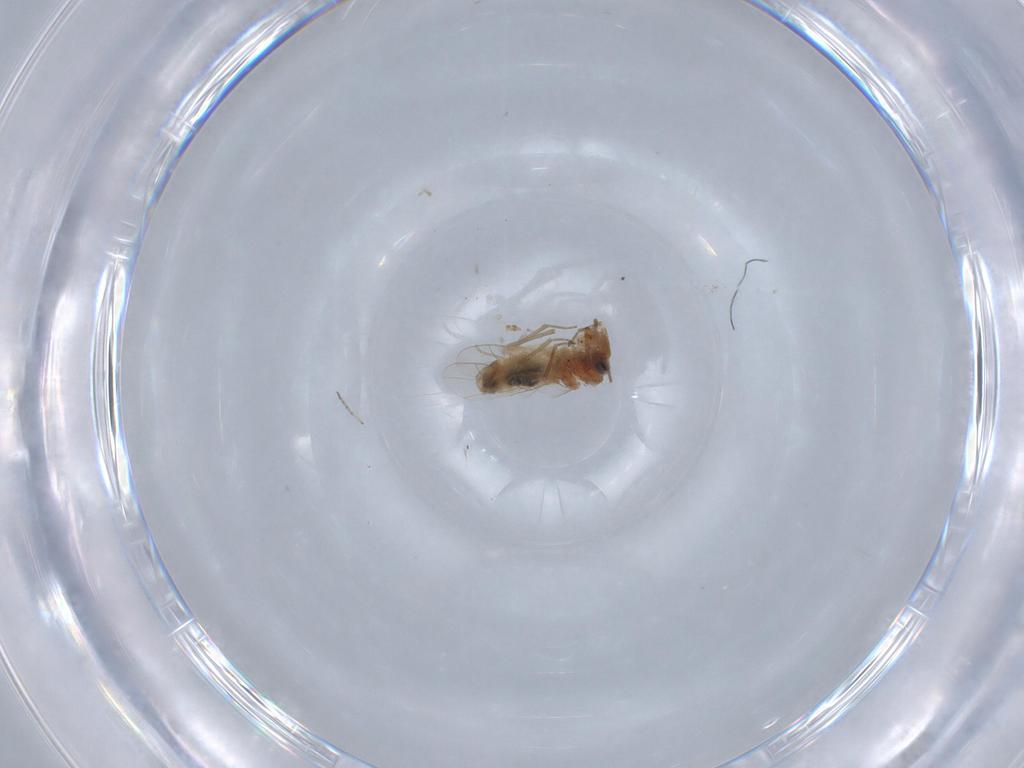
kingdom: Animalia
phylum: Arthropoda
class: Insecta
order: Psocodea
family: Ectopsocidae
